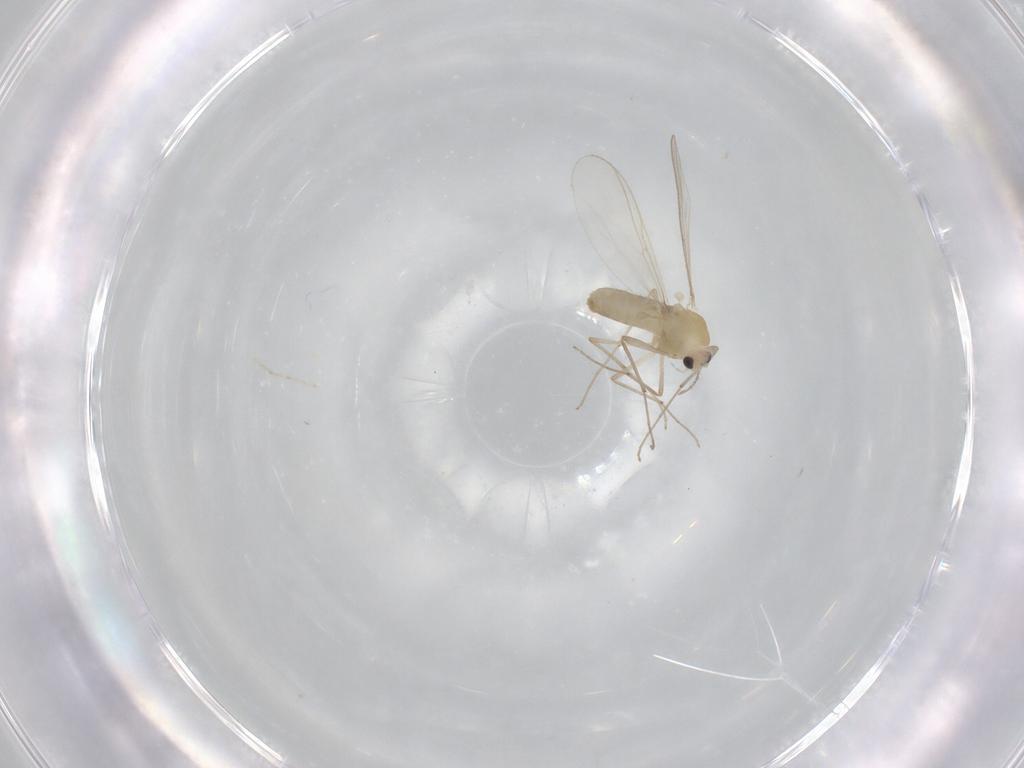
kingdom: Animalia
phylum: Arthropoda
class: Insecta
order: Diptera
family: Chironomidae
